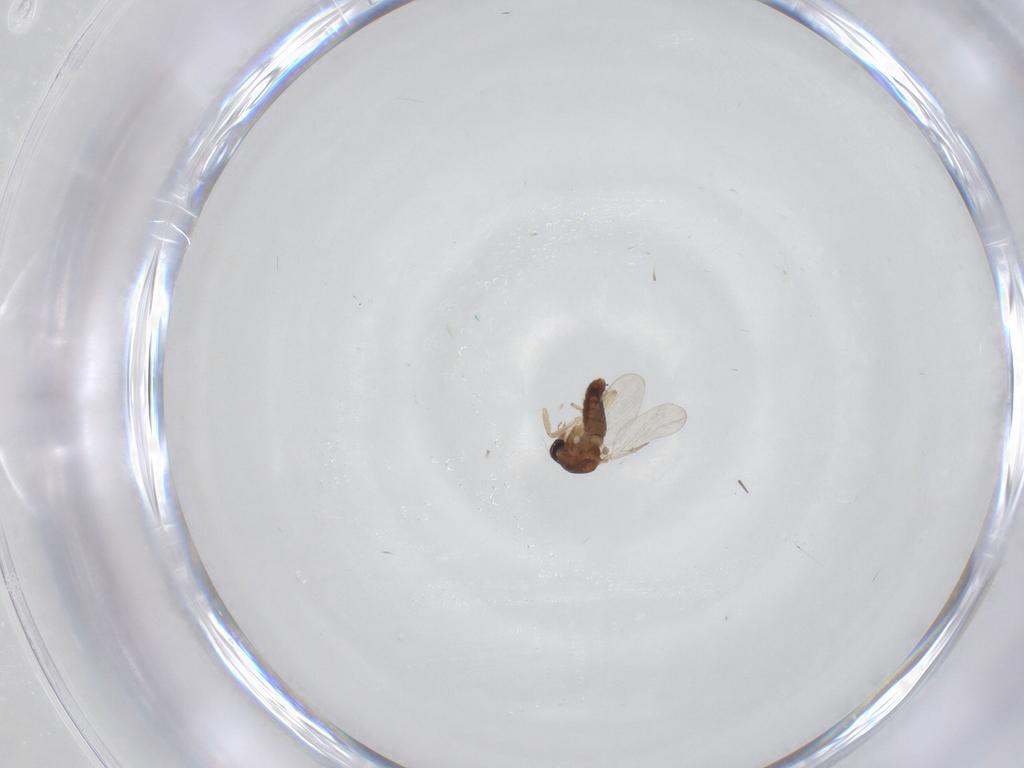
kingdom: Animalia
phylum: Arthropoda
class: Insecta
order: Diptera
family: Ceratopogonidae
